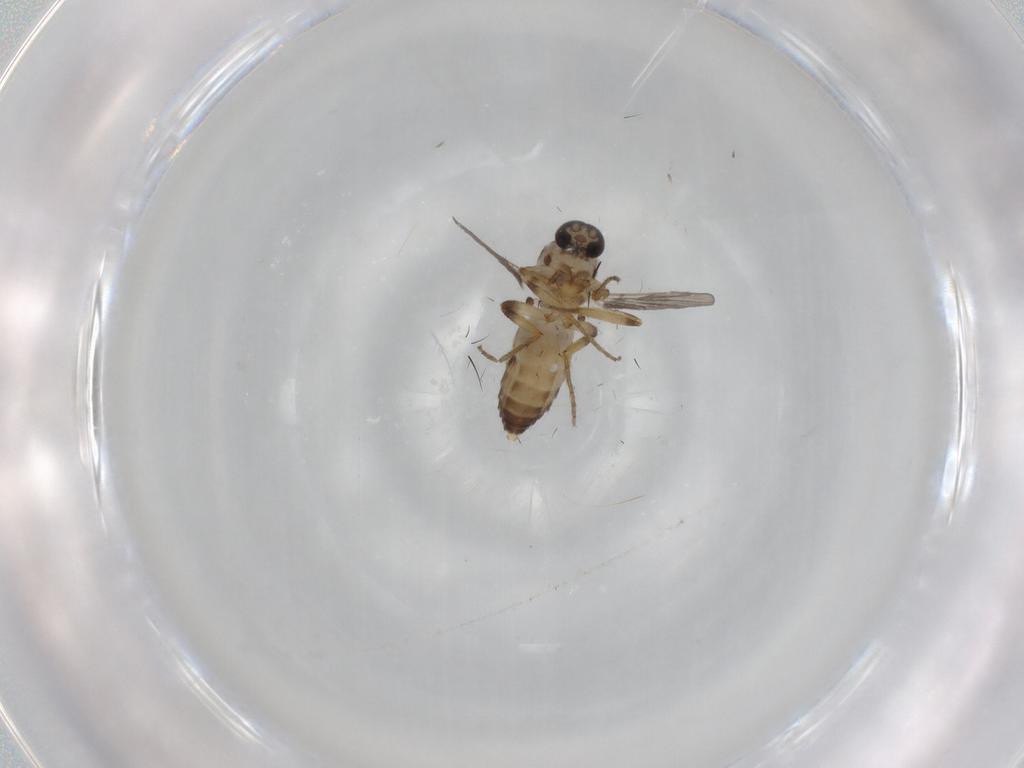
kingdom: Animalia
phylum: Arthropoda
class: Insecta
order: Diptera
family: Ceratopogonidae
